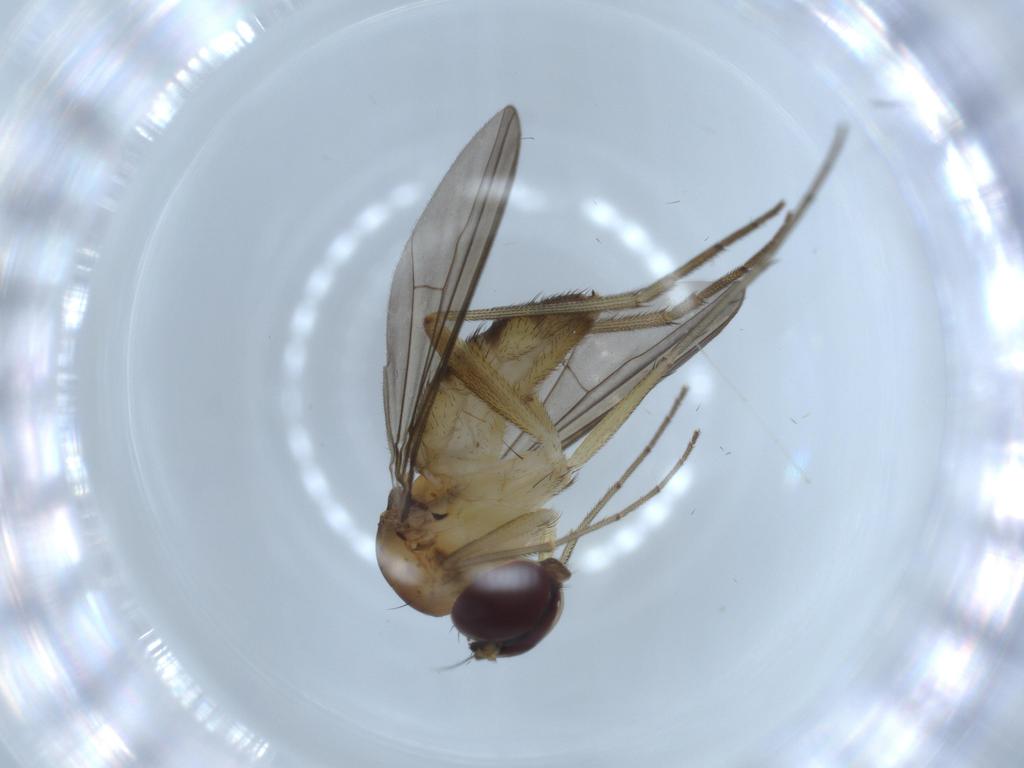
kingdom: Animalia
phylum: Arthropoda
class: Insecta
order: Diptera
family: Dolichopodidae
